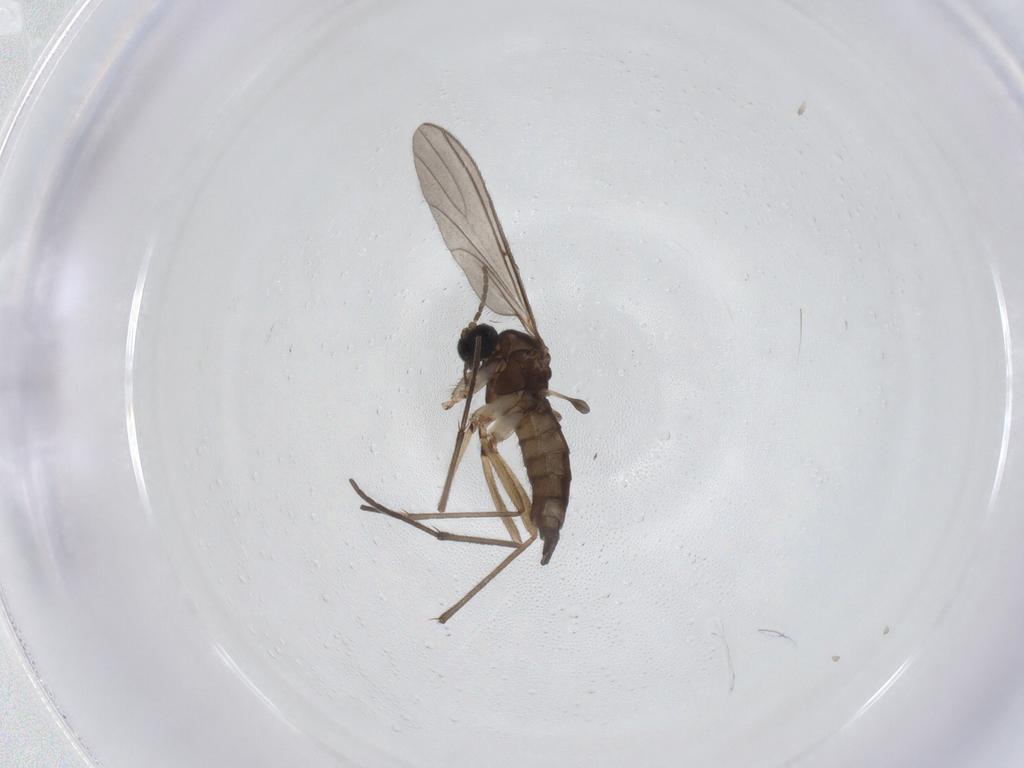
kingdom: Animalia
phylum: Arthropoda
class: Insecta
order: Diptera
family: Sciaridae
